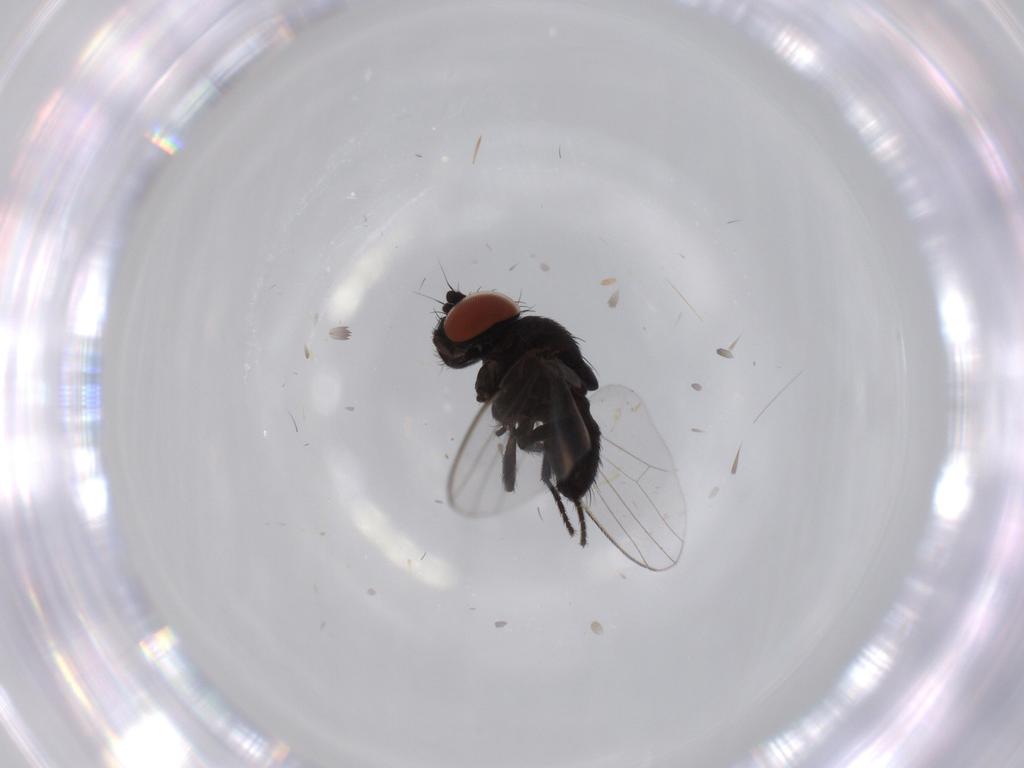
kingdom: Animalia
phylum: Arthropoda
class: Insecta
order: Diptera
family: Milichiidae
